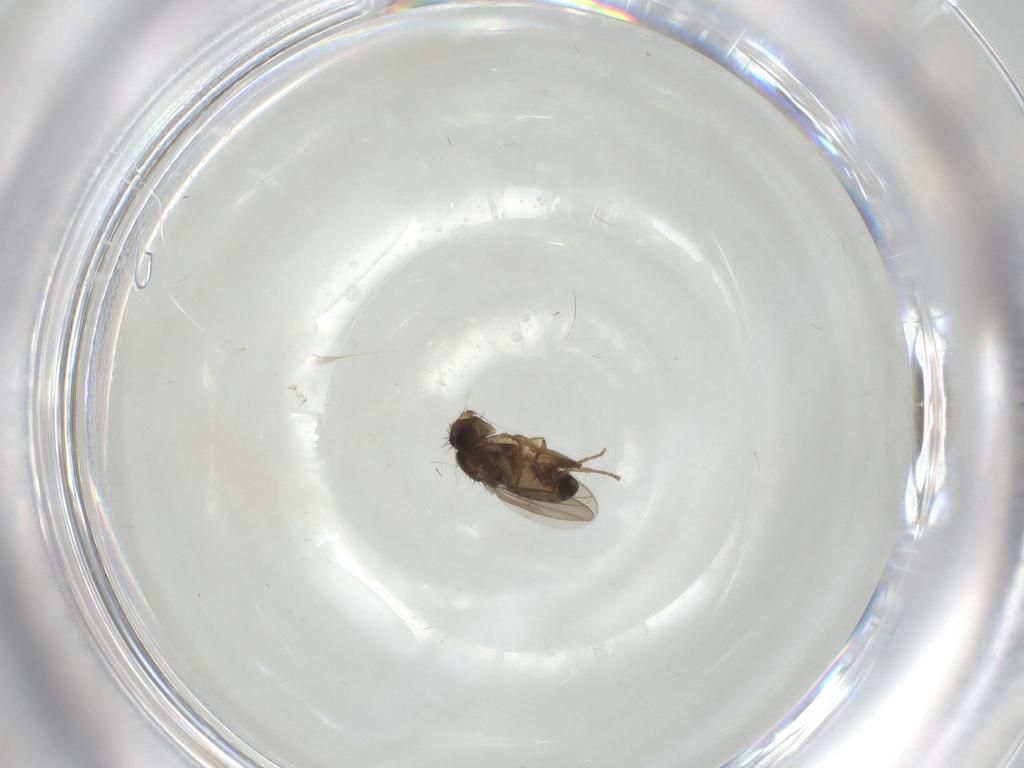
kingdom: Animalia
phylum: Arthropoda
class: Insecta
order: Diptera
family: Sphaeroceridae
